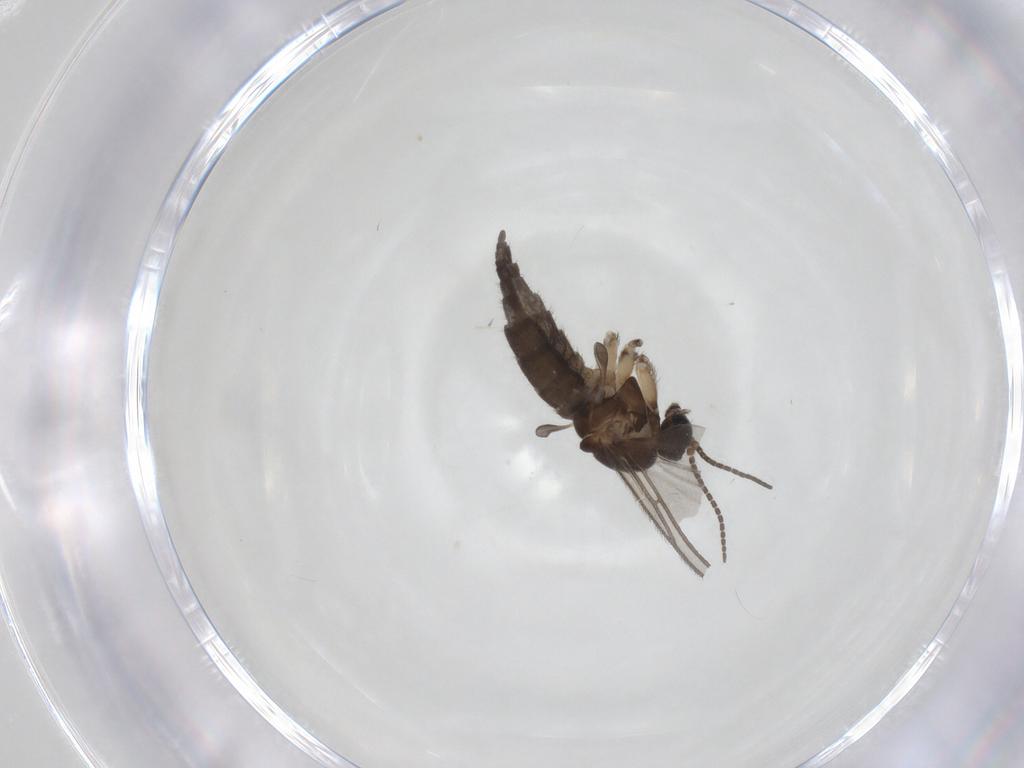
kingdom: Animalia
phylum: Arthropoda
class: Insecta
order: Diptera
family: Sciaridae
